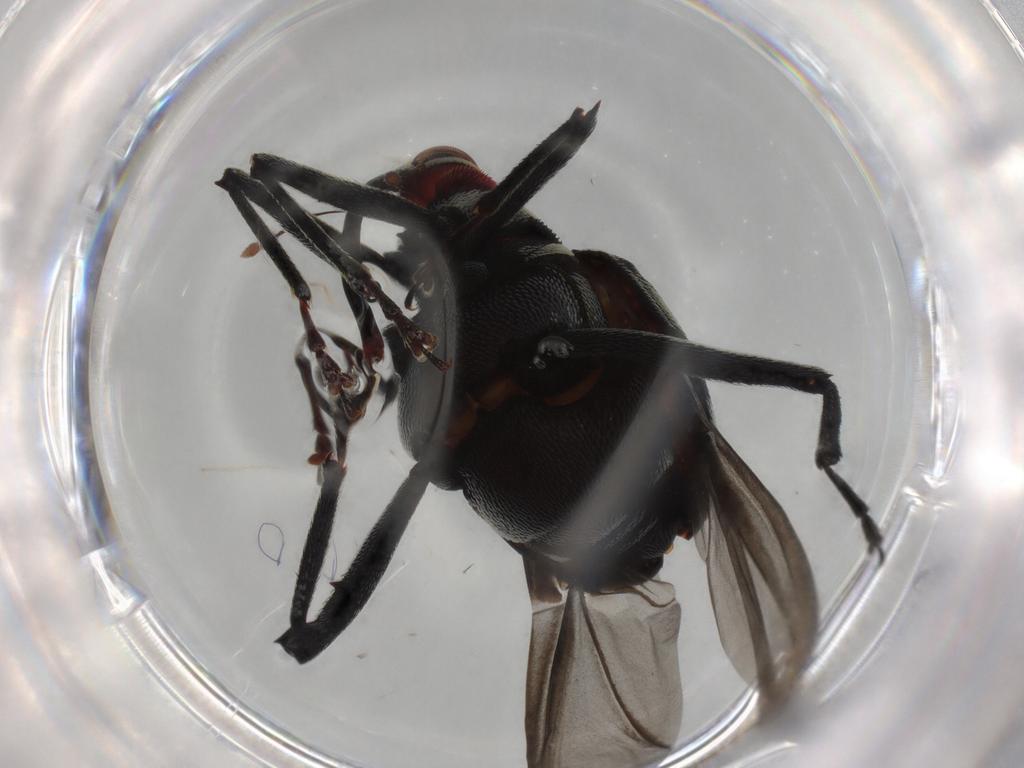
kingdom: Animalia
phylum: Arthropoda
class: Insecta
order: Coleoptera
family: Curculionidae
